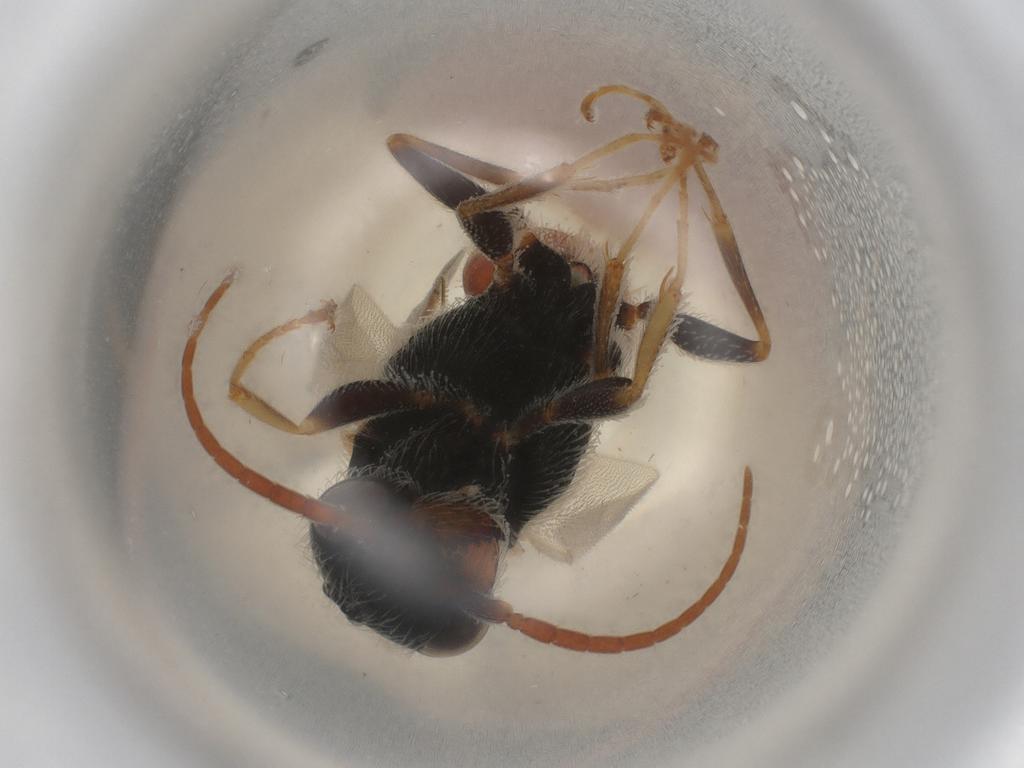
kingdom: Animalia
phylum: Arthropoda
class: Insecta
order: Hymenoptera
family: Bethylidae
